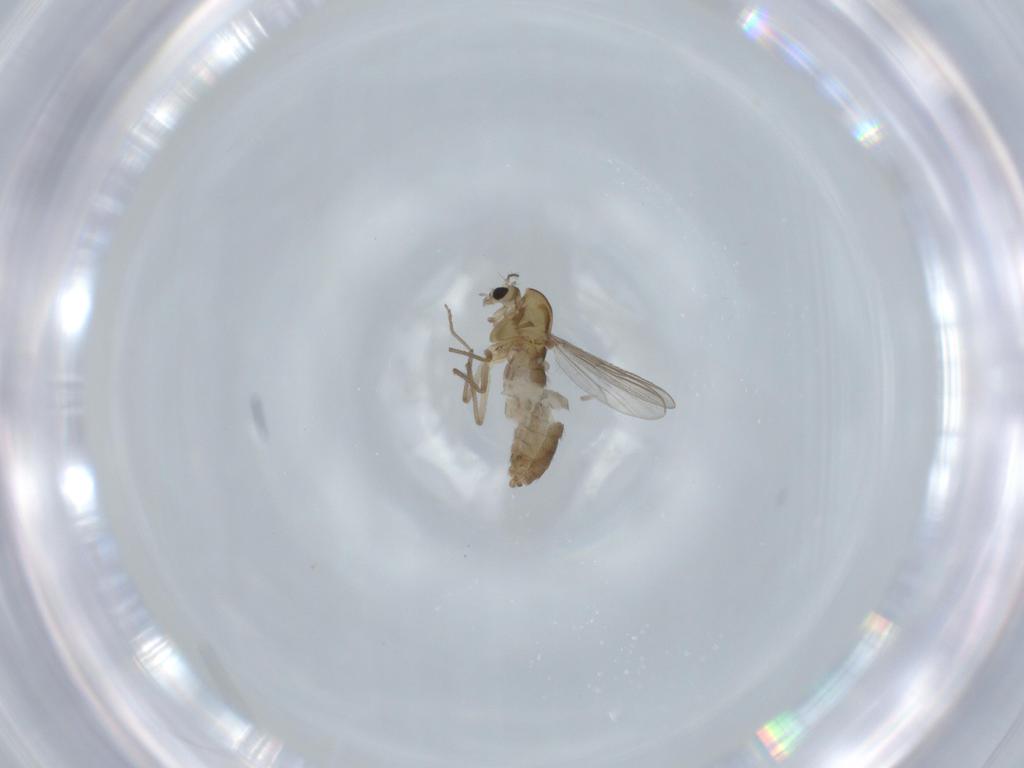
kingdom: Animalia
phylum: Arthropoda
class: Insecta
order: Diptera
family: Chironomidae
